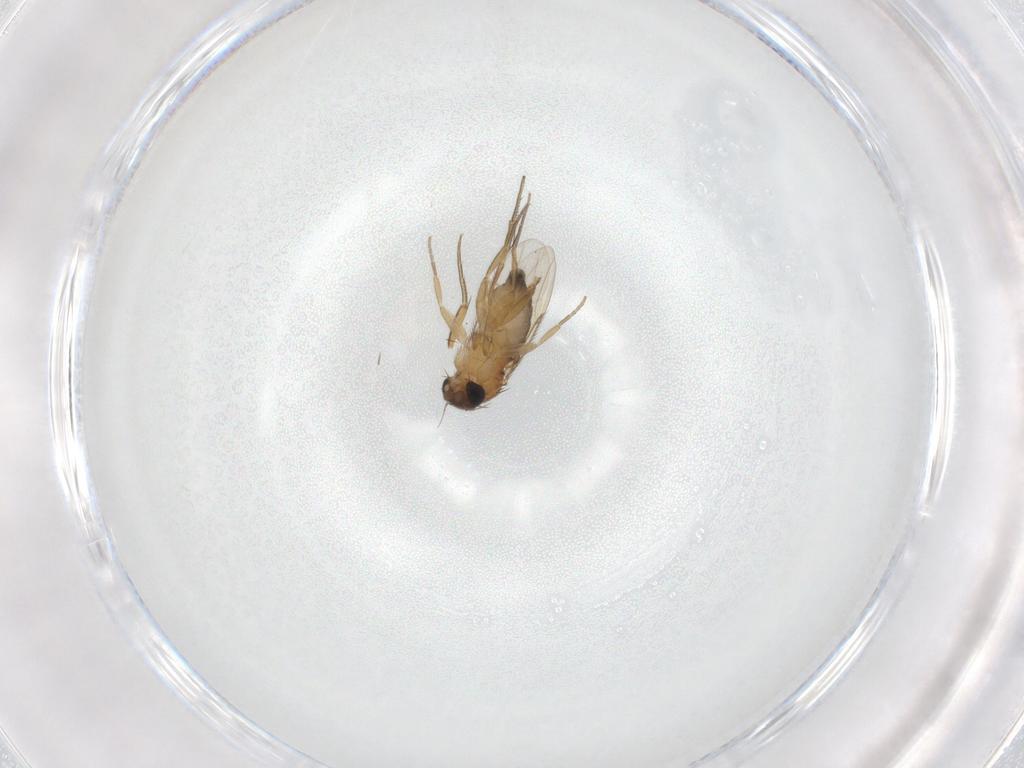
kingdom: Animalia
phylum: Arthropoda
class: Insecta
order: Diptera
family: Phoridae
